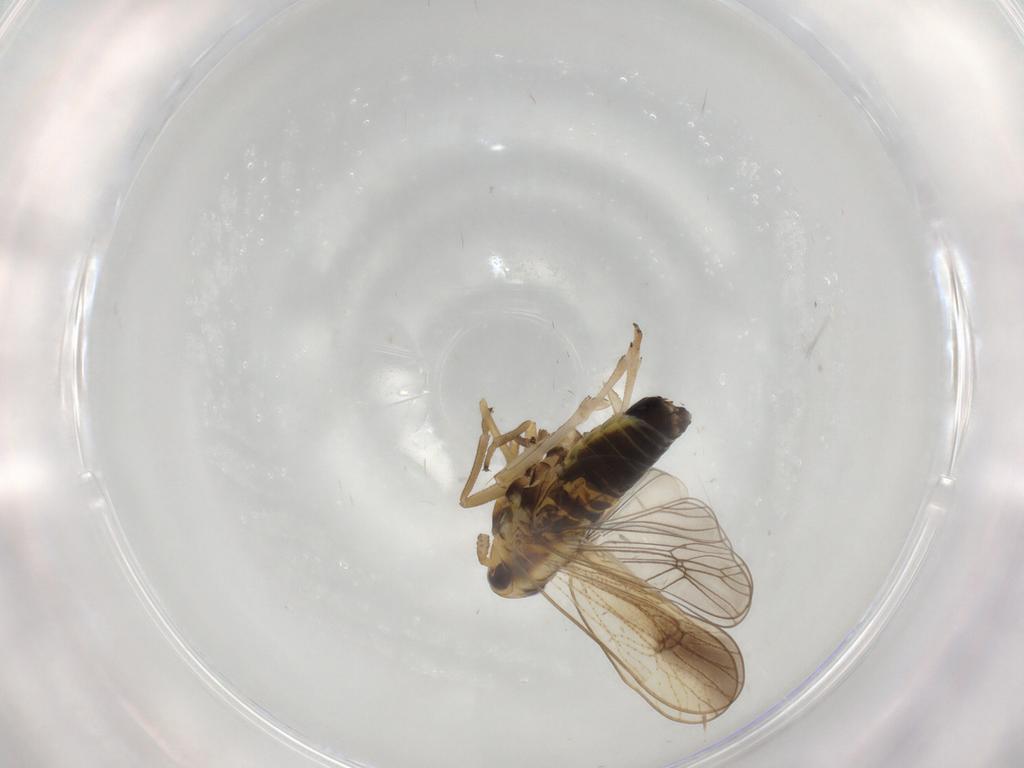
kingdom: Animalia
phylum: Arthropoda
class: Insecta
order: Hemiptera
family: Delphacidae
